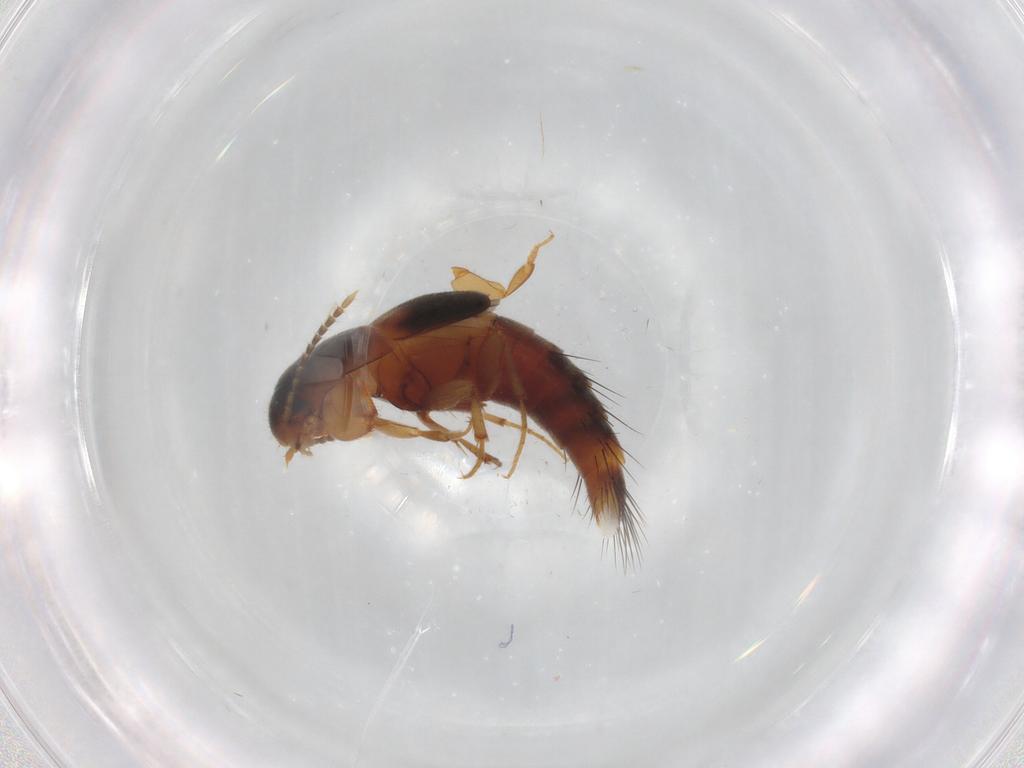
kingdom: Animalia
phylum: Arthropoda
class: Insecta
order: Coleoptera
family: Staphylinidae
